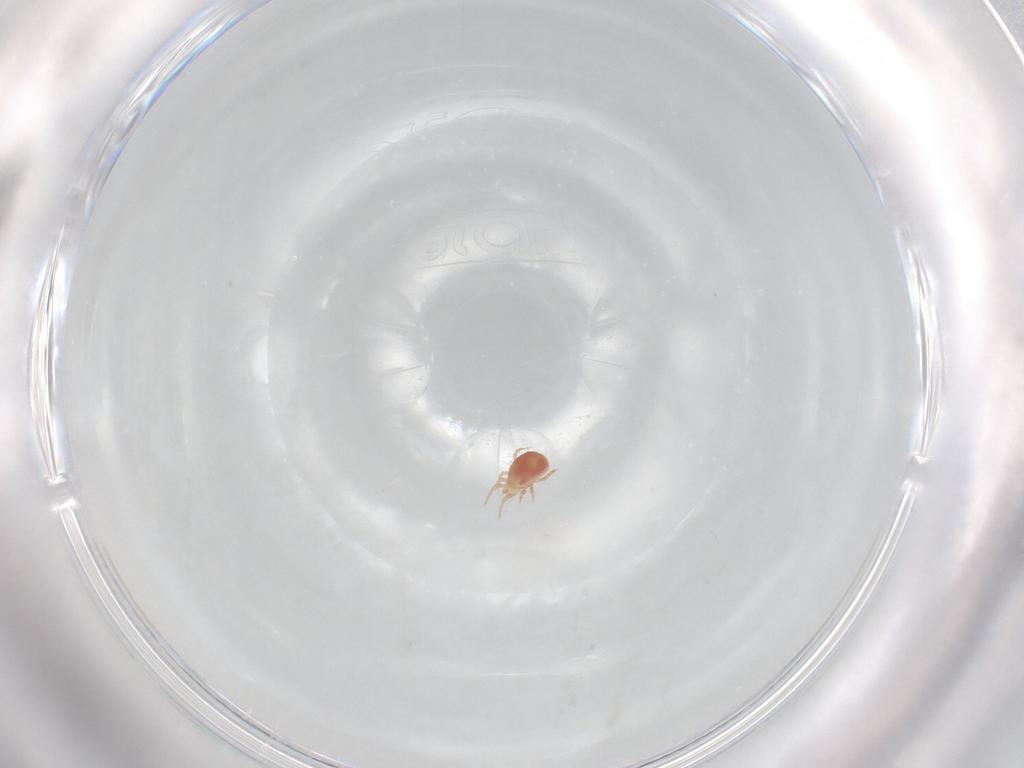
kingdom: Animalia
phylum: Arthropoda
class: Arachnida
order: Mesostigmata
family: Phytoseiidae
